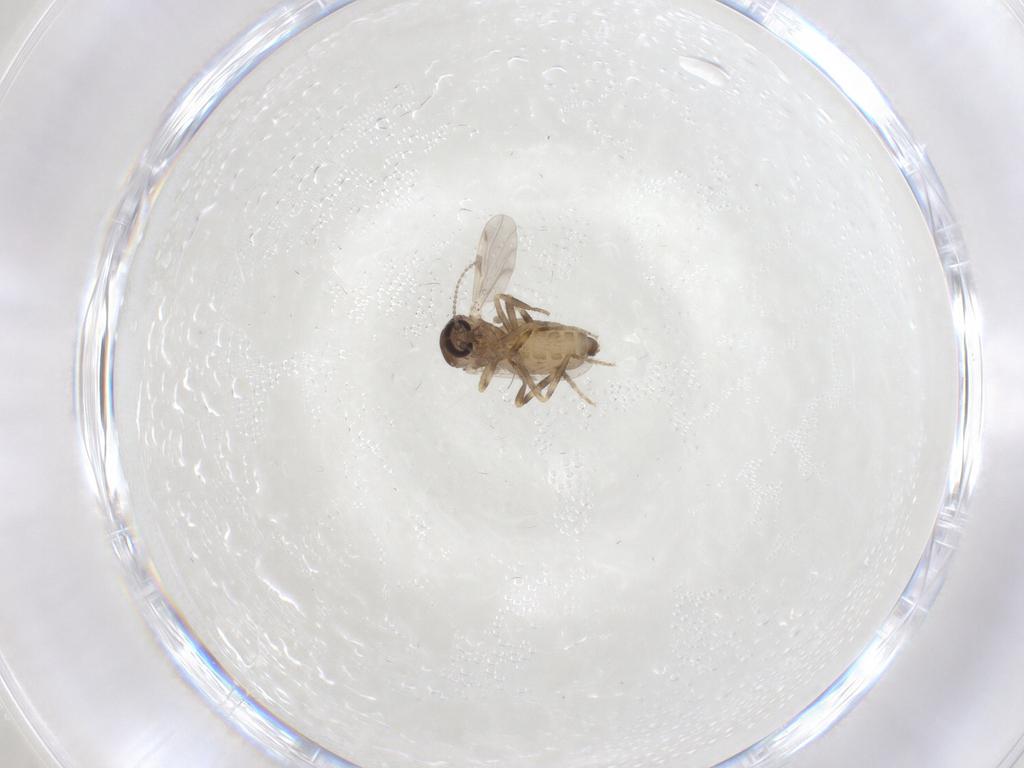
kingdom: Animalia
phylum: Arthropoda
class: Insecta
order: Diptera
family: Ceratopogonidae
